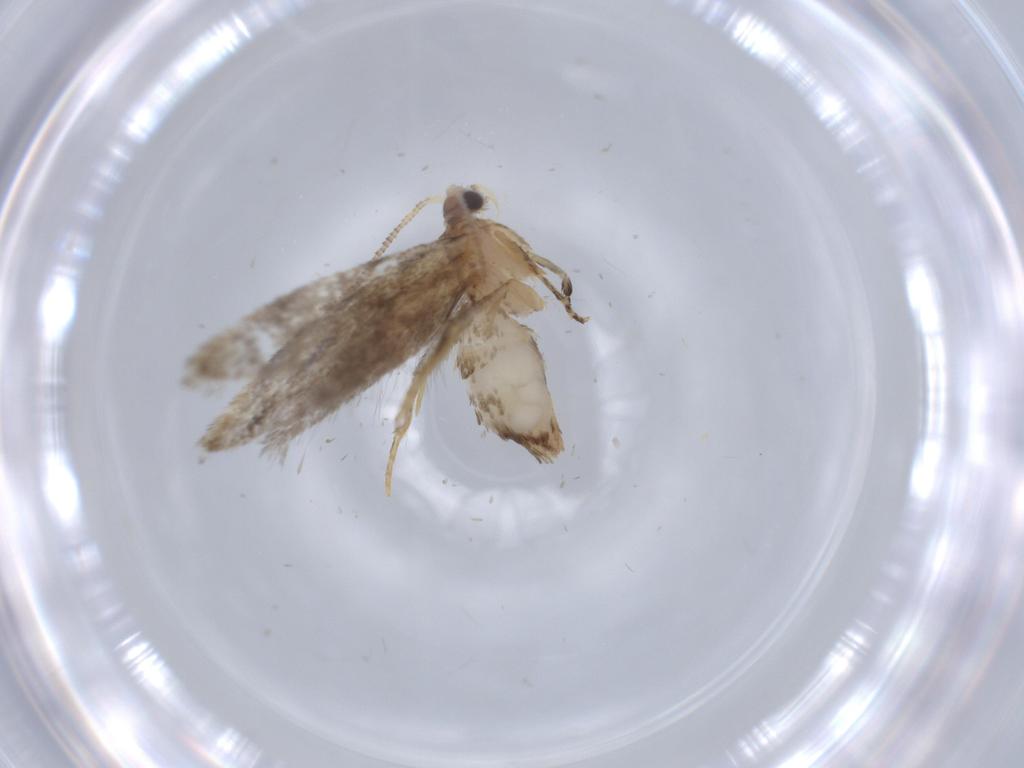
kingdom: Animalia
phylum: Arthropoda
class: Insecta
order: Lepidoptera
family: Tineidae
